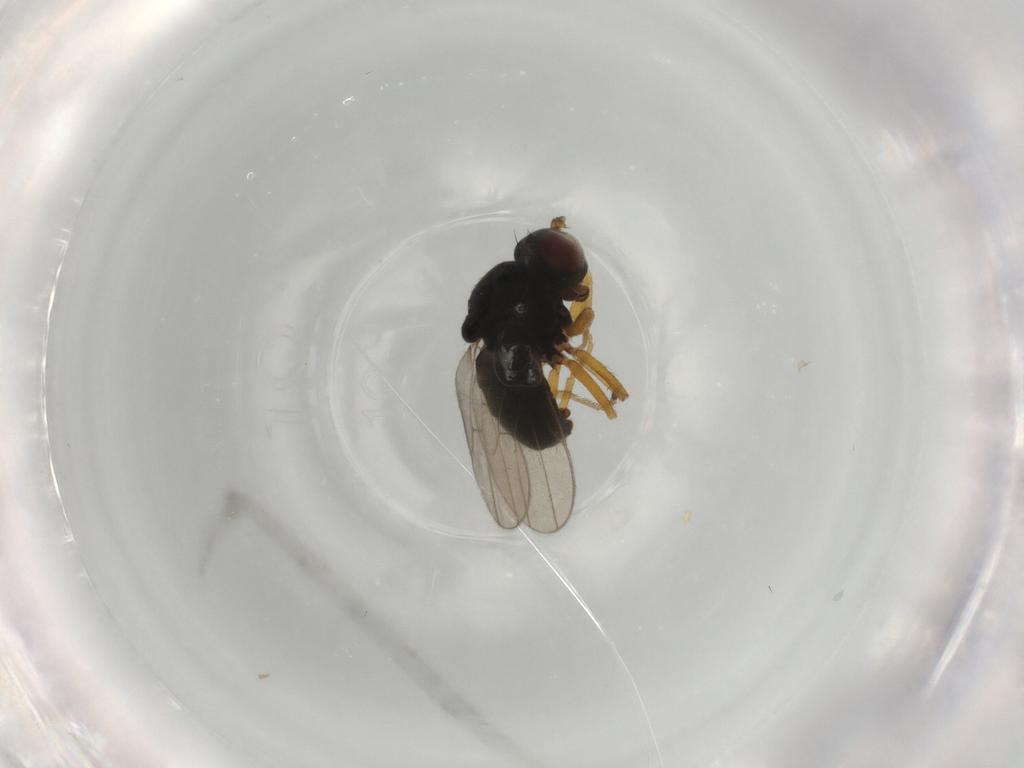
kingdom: Animalia
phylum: Arthropoda
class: Insecta
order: Diptera
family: Ephydridae
